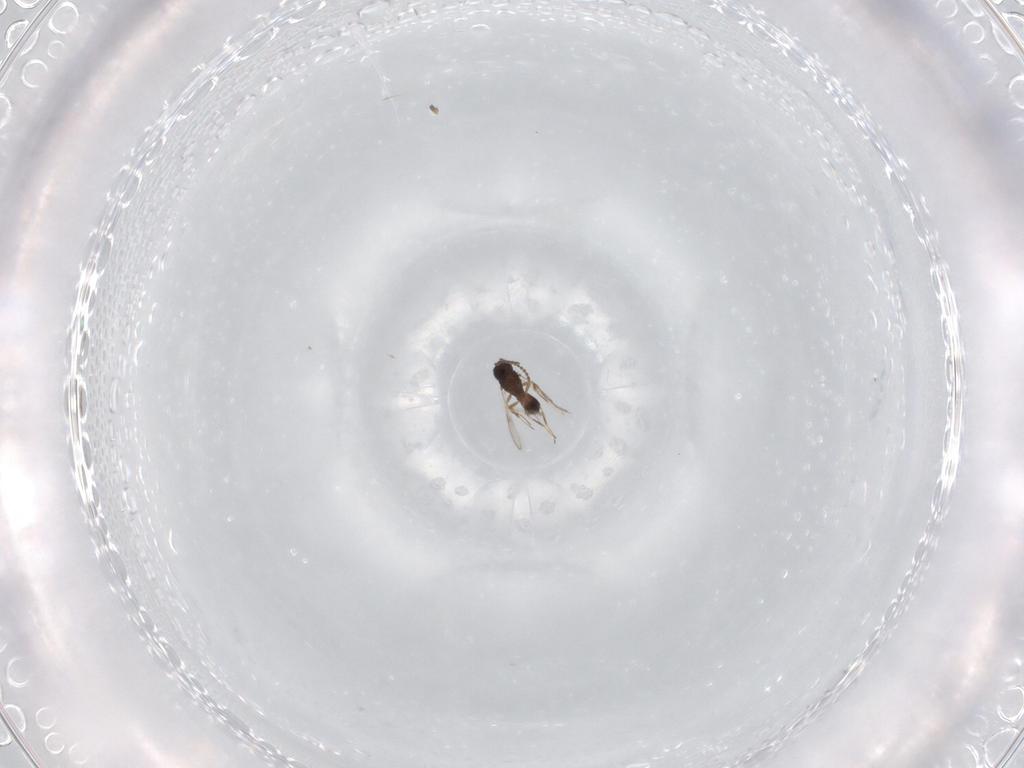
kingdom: Animalia
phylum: Arthropoda
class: Insecta
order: Hymenoptera
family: Scelionidae
